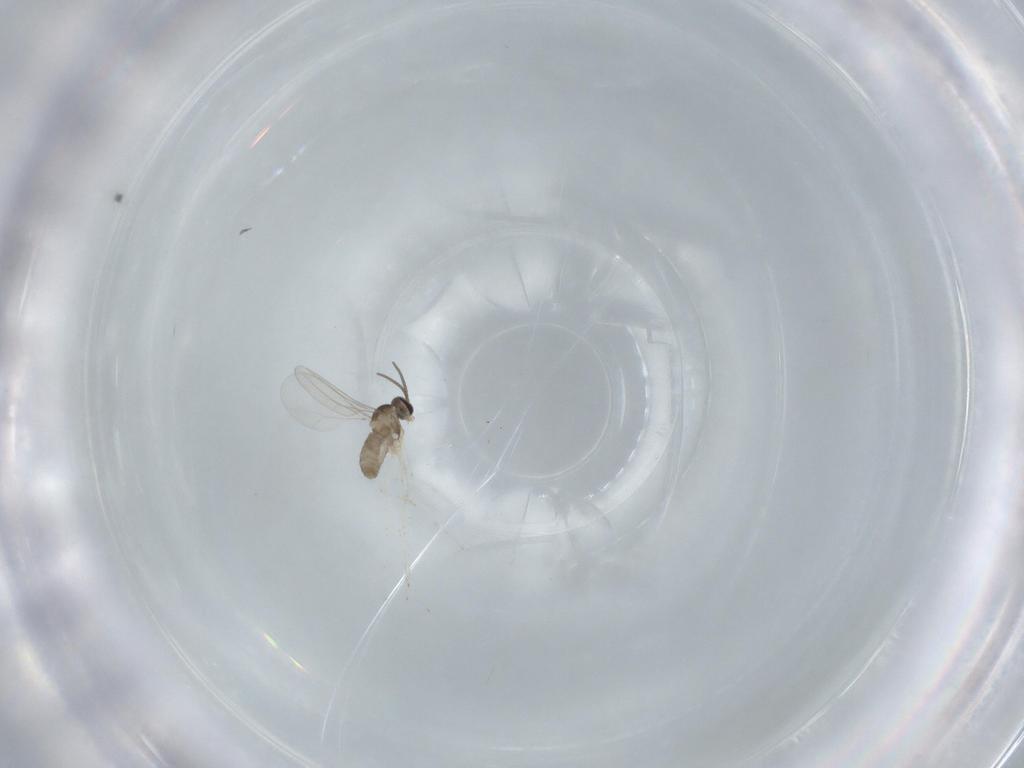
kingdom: Animalia
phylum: Arthropoda
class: Insecta
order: Diptera
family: Cecidomyiidae
